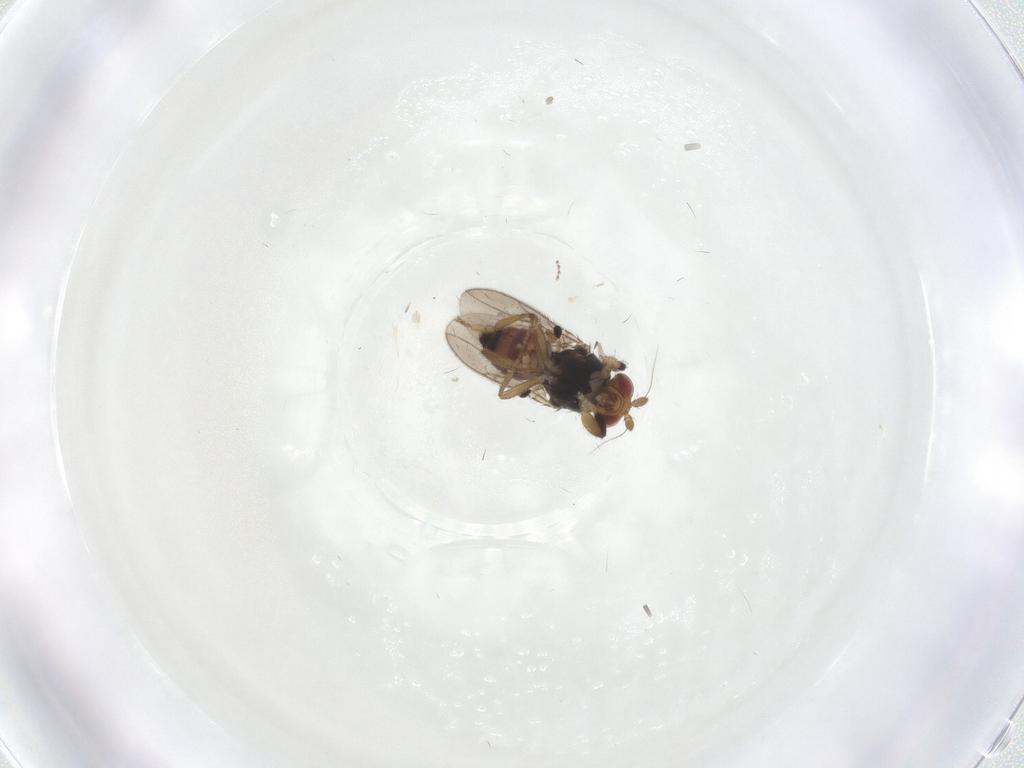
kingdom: Animalia
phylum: Arthropoda
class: Insecta
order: Diptera
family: Sphaeroceridae
